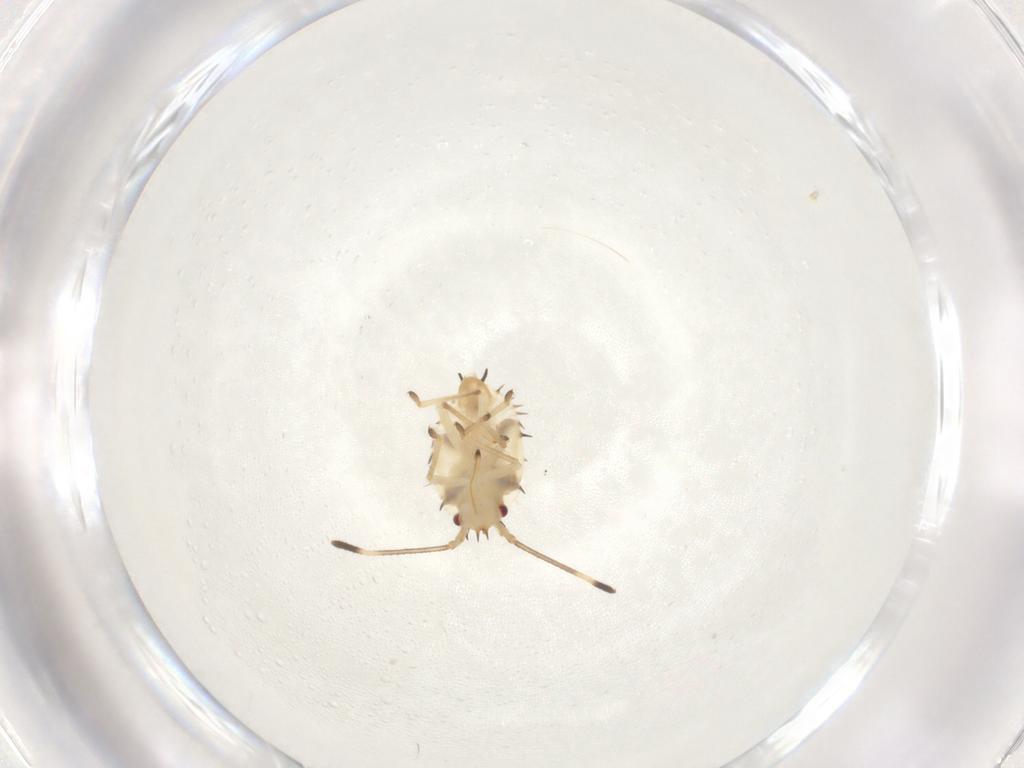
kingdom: Animalia
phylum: Arthropoda
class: Insecta
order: Hemiptera
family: Tingidae
